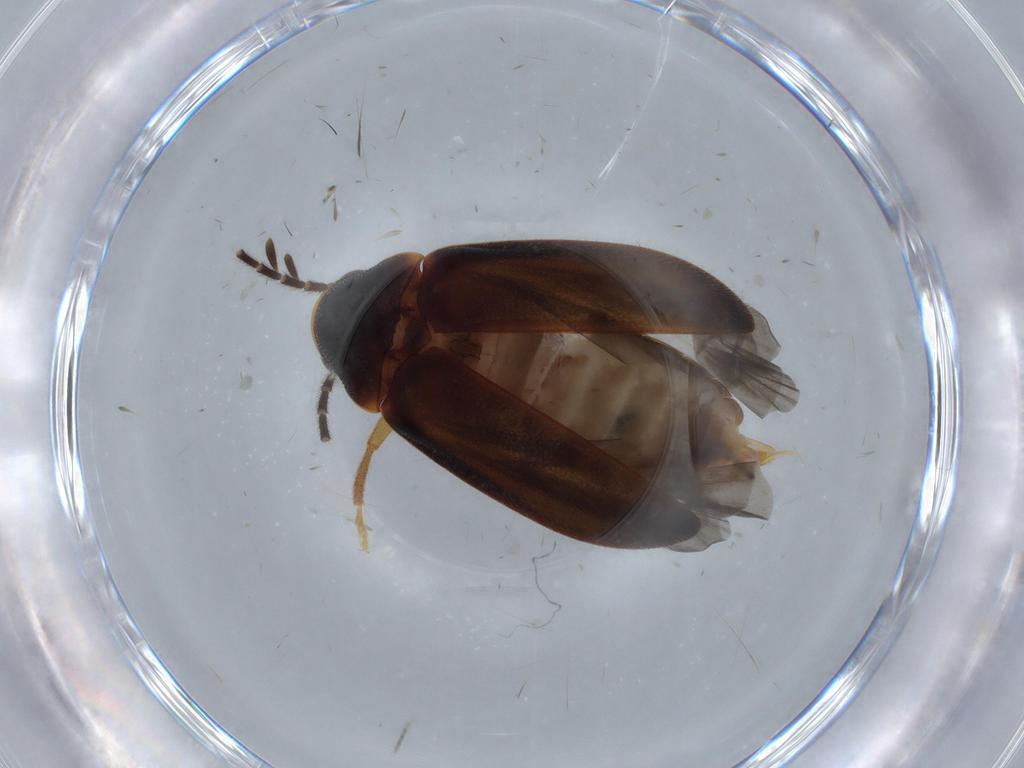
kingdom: Animalia
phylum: Arthropoda
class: Insecta
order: Coleoptera
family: Ptilodactylidae
